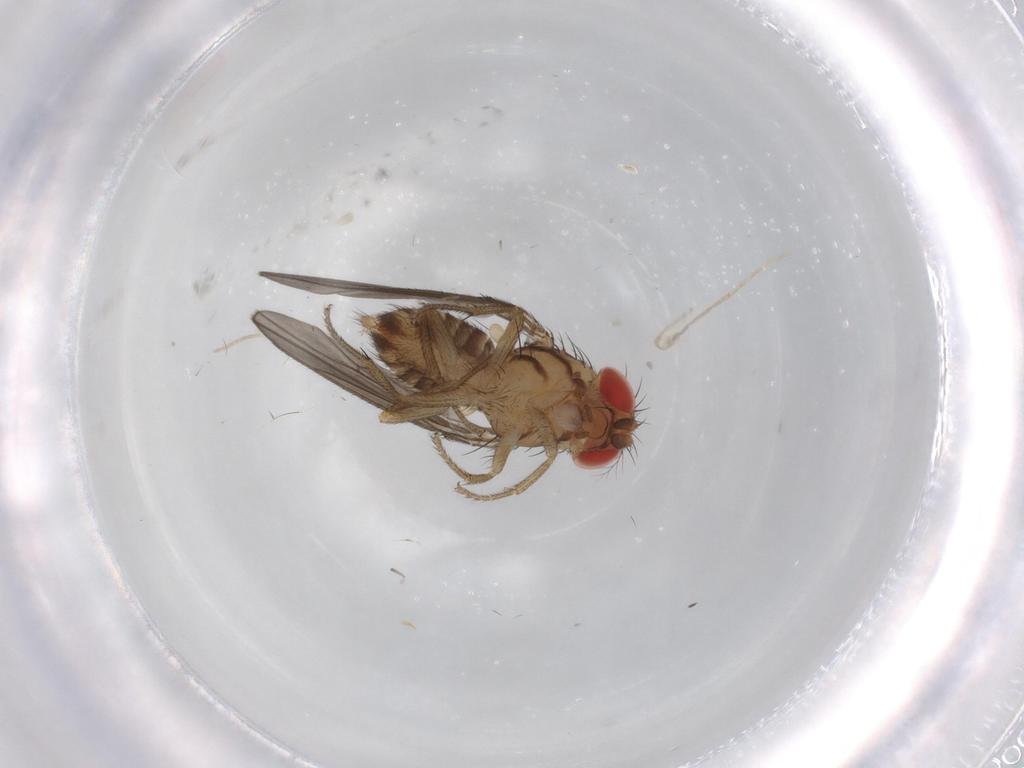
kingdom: Animalia
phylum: Arthropoda
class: Insecta
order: Diptera
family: Drosophilidae
